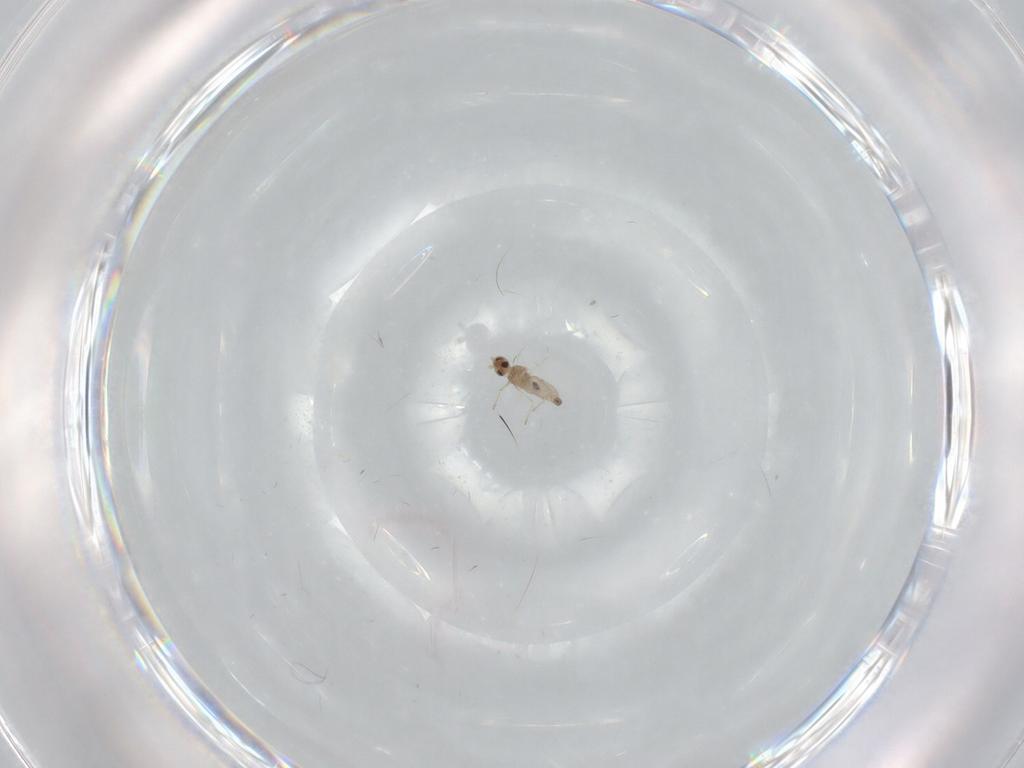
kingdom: Animalia
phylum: Arthropoda
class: Insecta
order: Diptera
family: Cecidomyiidae
